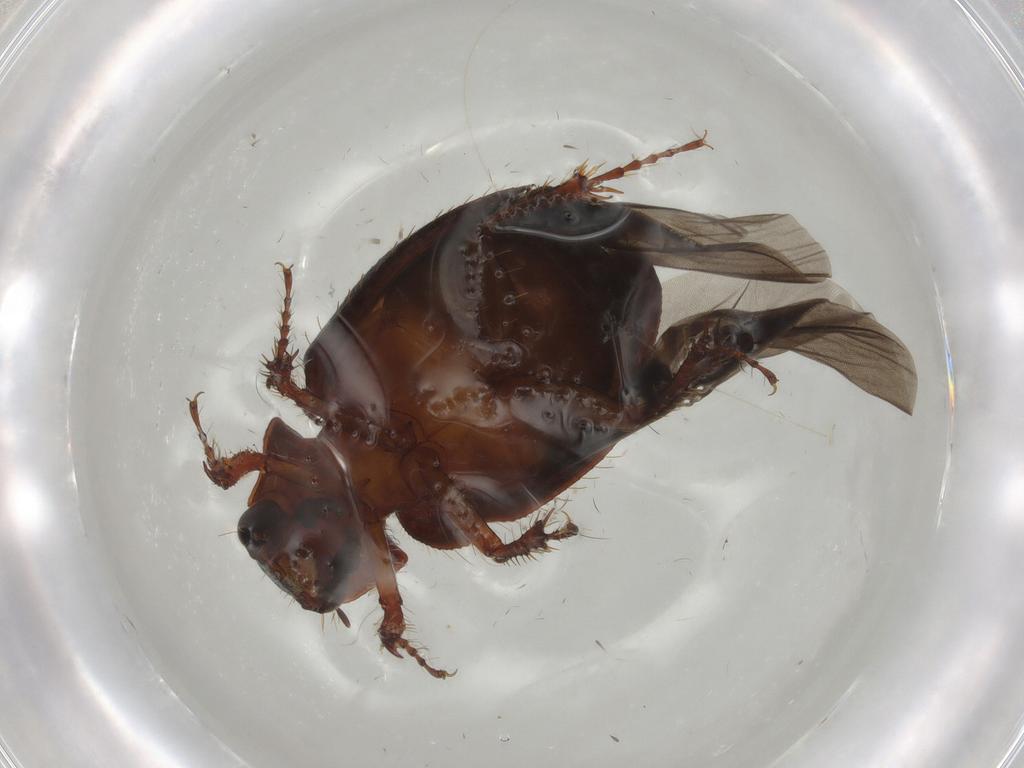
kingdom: Animalia
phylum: Arthropoda
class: Insecta
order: Coleoptera
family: Hybosoridae
